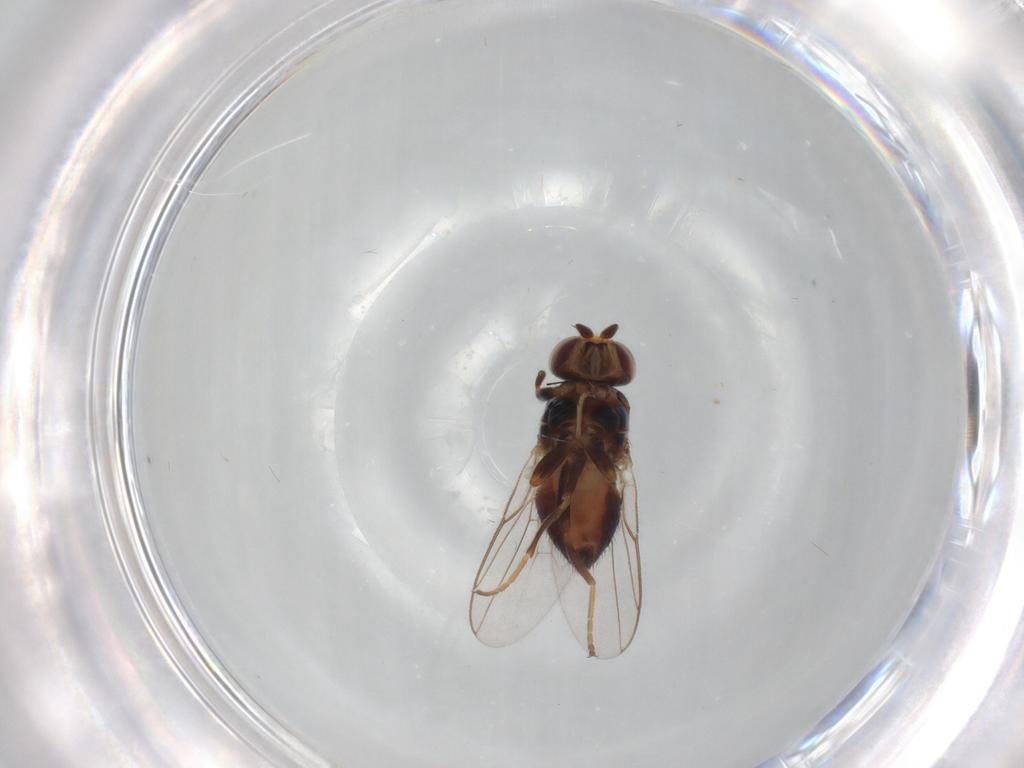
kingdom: Animalia
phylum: Arthropoda
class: Insecta
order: Diptera
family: Chloropidae
